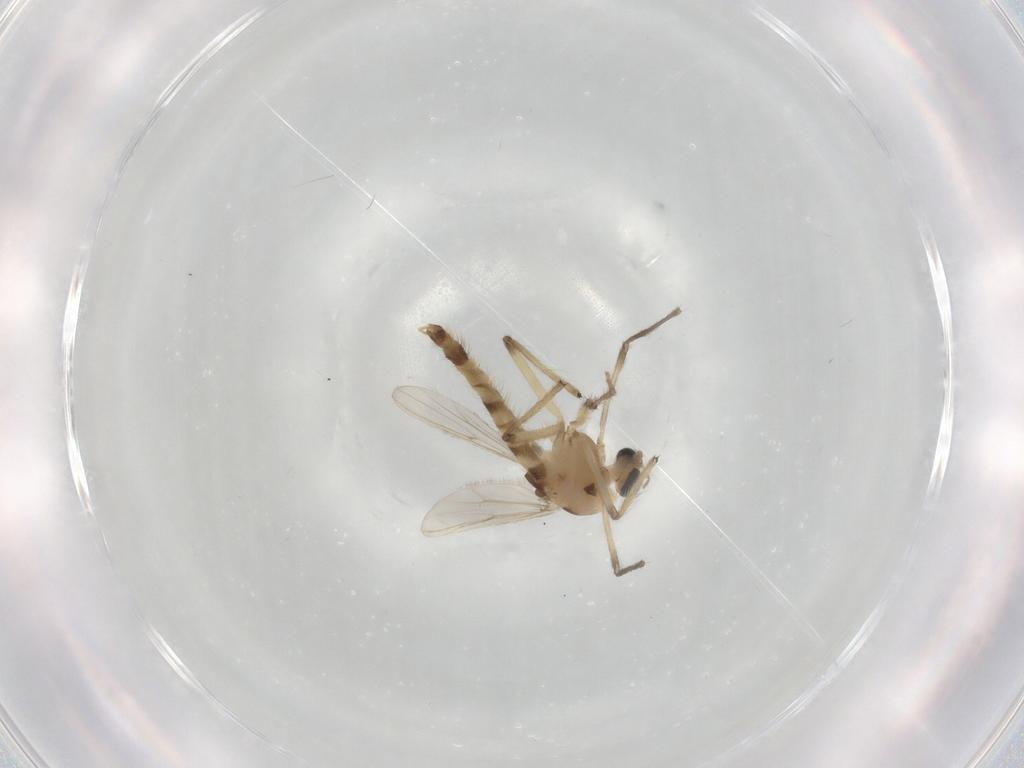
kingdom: Animalia
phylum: Arthropoda
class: Insecta
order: Diptera
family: Chironomidae
